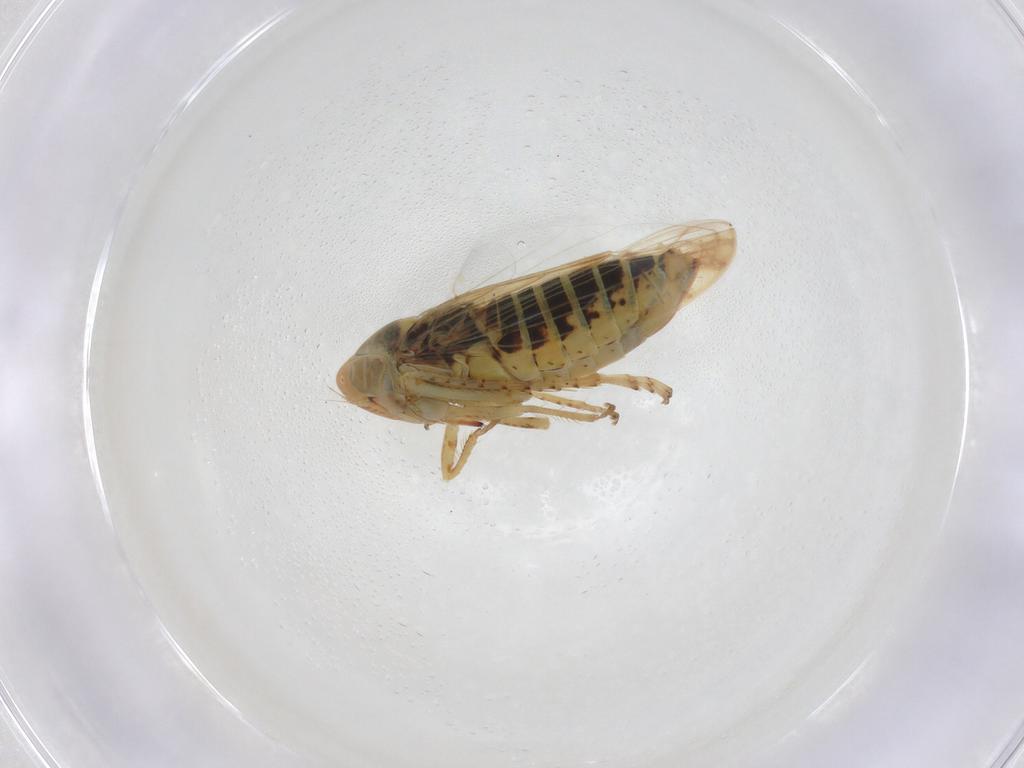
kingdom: Animalia
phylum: Arthropoda
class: Insecta
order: Hemiptera
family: Cicadellidae
